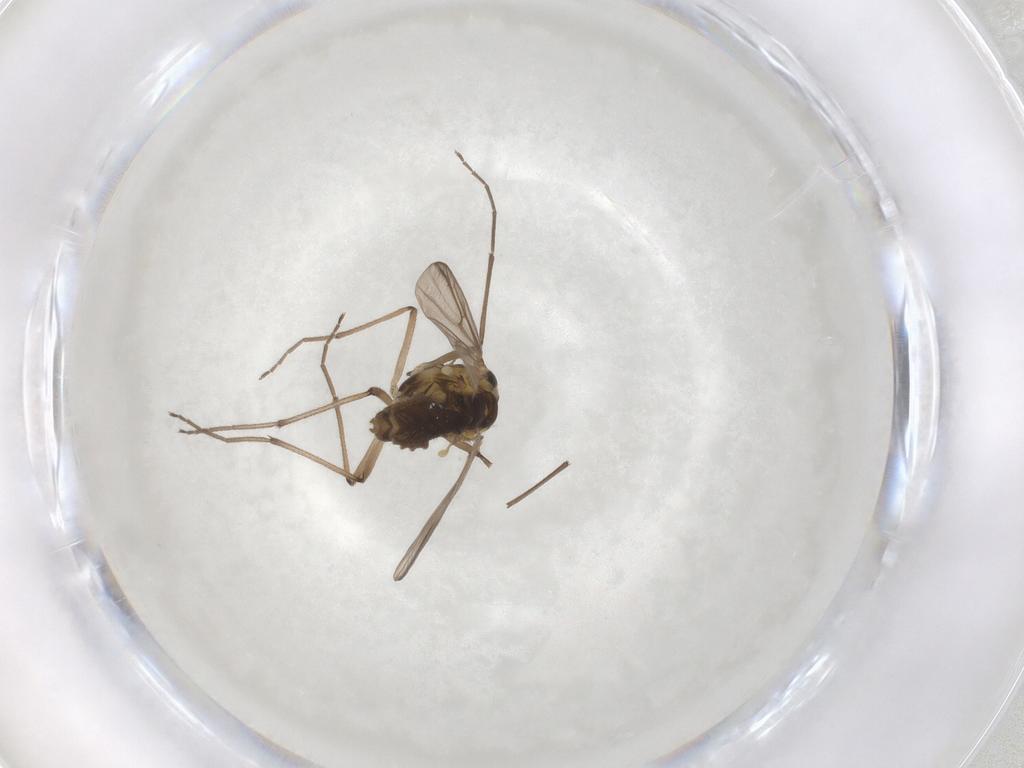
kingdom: Animalia
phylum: Arthropoda
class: Insecta
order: Diptera
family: Chironomidae
